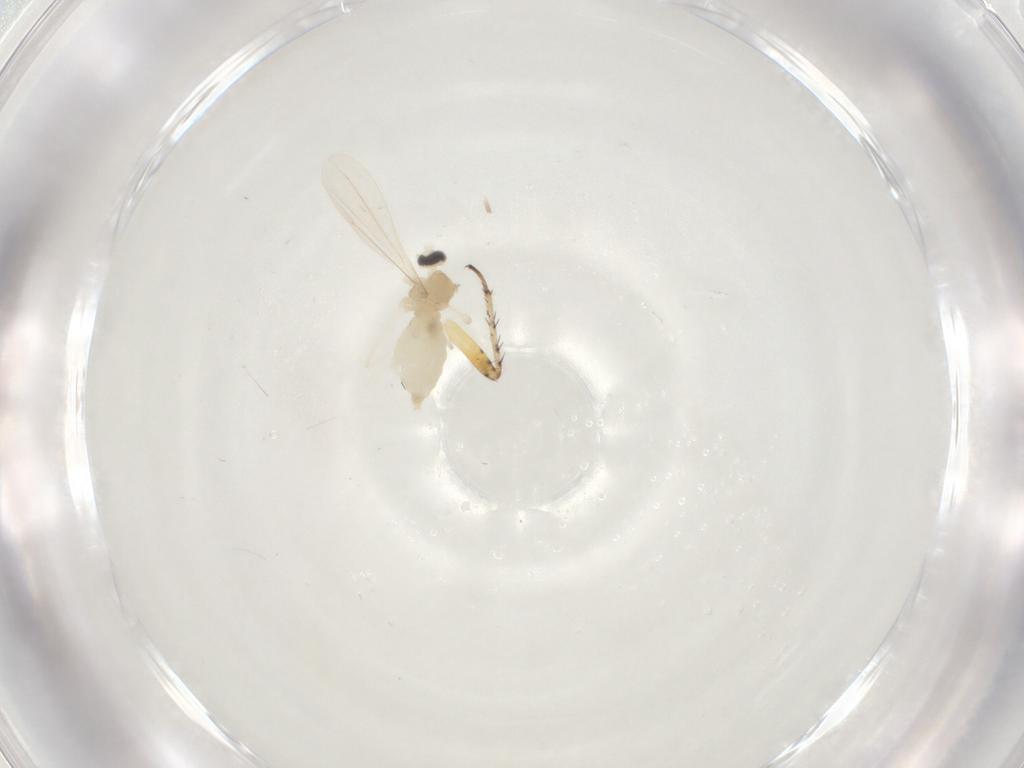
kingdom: Animalia
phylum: Arthropoda
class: Insecta
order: Diptera
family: Cecidomyiidae
